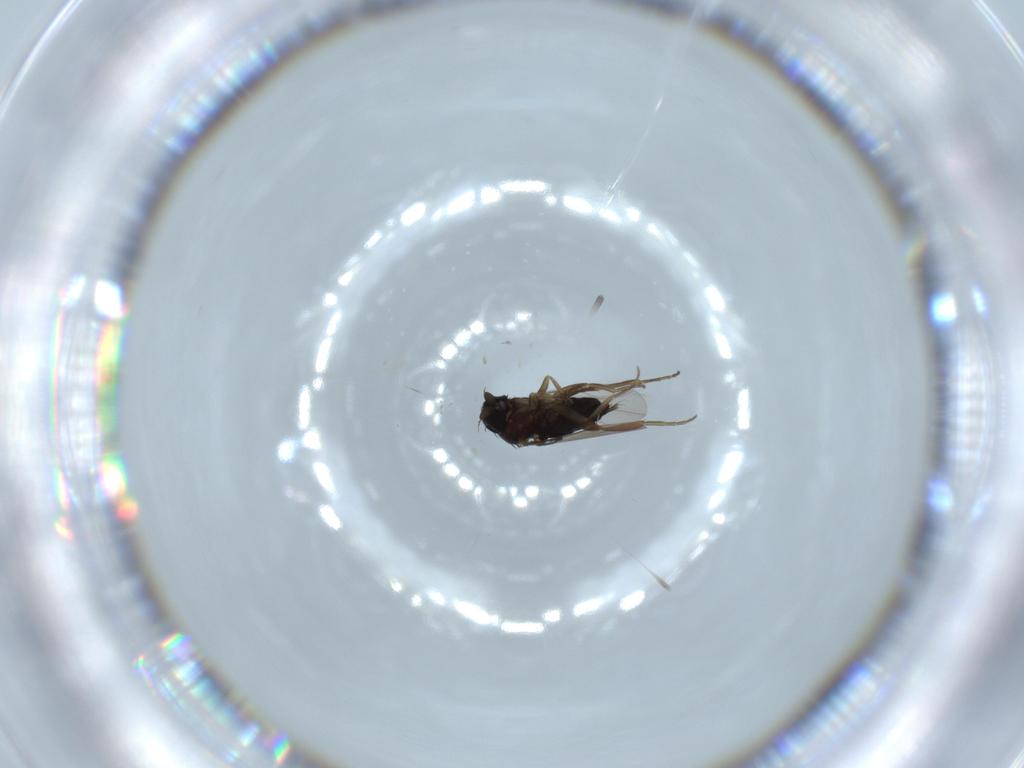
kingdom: Animalia
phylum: Arthropoda
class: Insecta
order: Diptera
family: Phoridae
